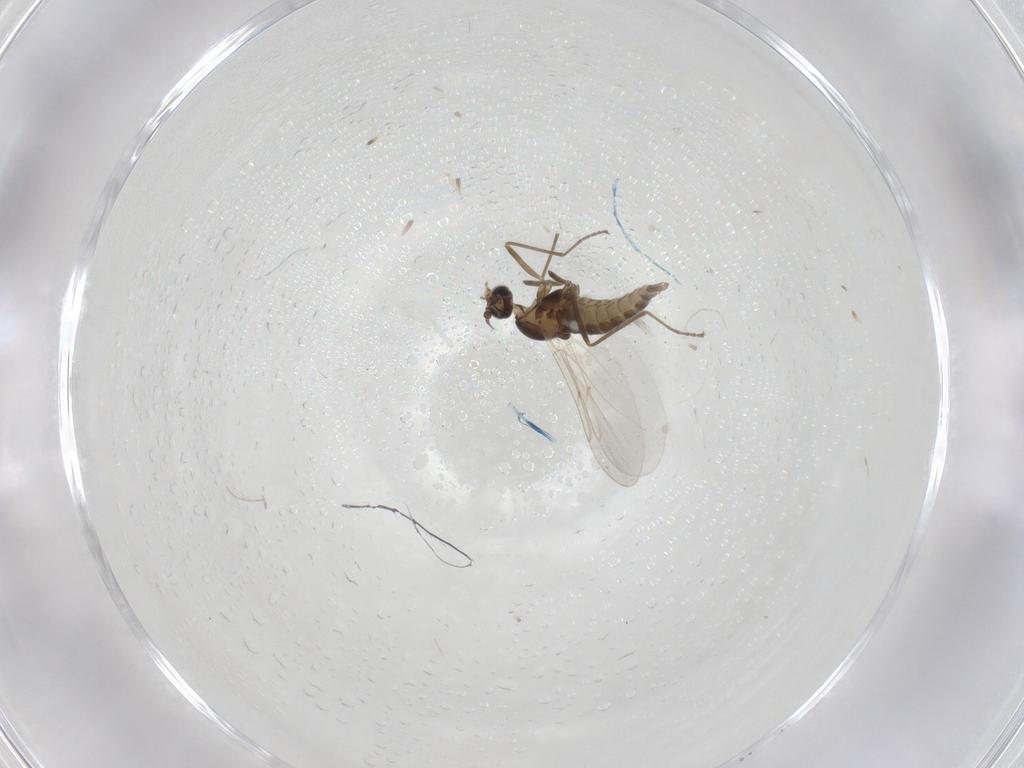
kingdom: Animalia
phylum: Arthropoda
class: Insecta
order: Diptera
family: Cecidomyiidae
